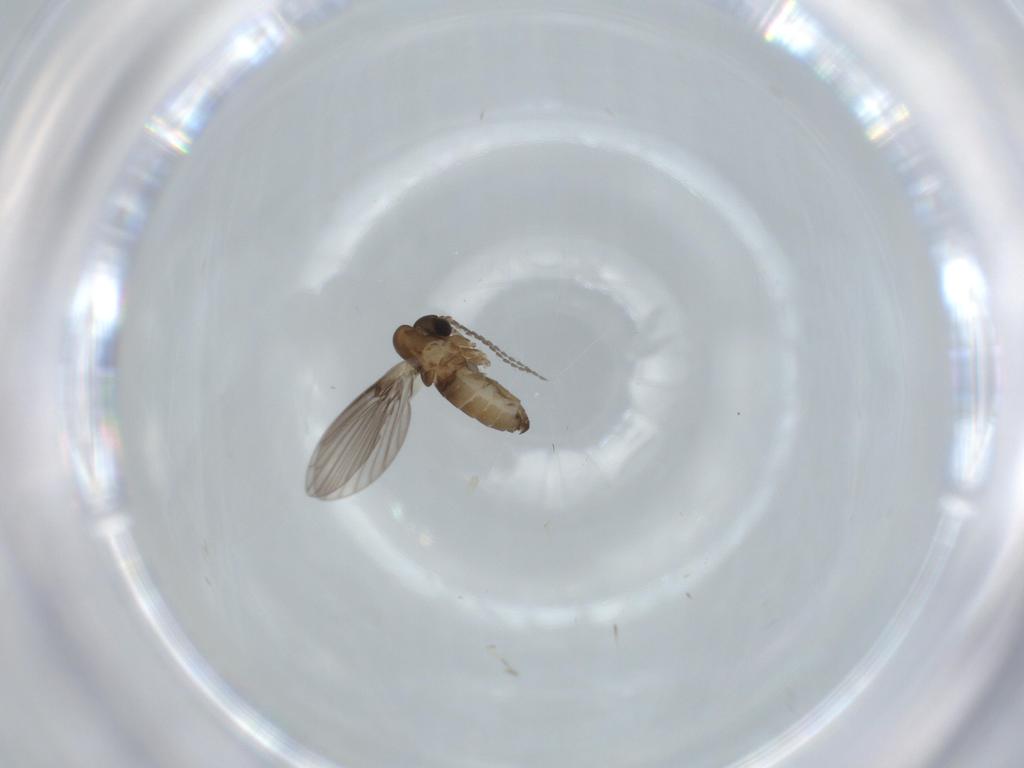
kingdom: Animalia
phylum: Arthropoda
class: Insecta
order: Diptera
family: Psychodidae
